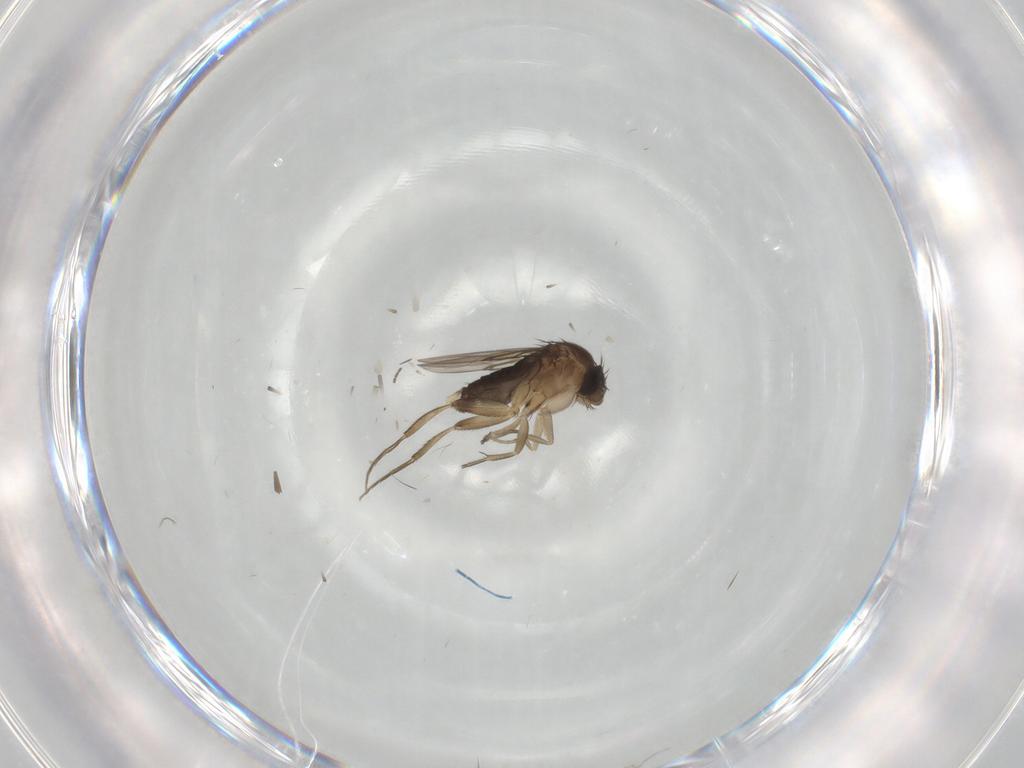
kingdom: Animalia
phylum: Arthropoda
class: Insecta
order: Diptera
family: Phoridae
